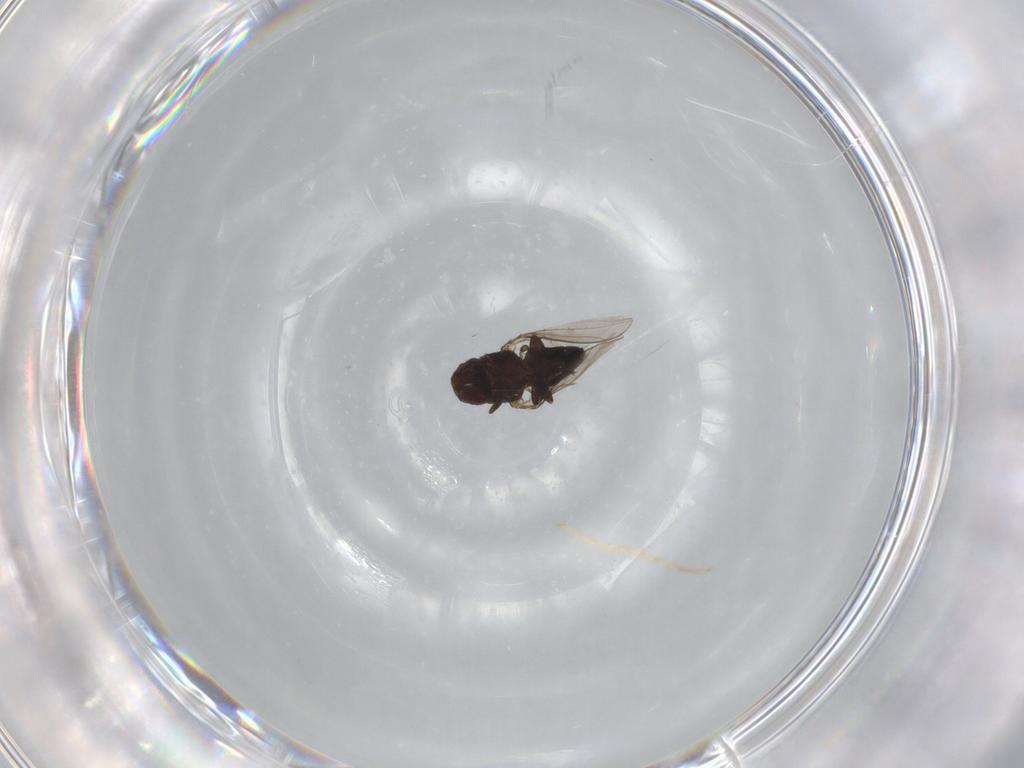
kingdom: Animalia
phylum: Arthropoda
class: Insecta
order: Diptera
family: Carnidae
